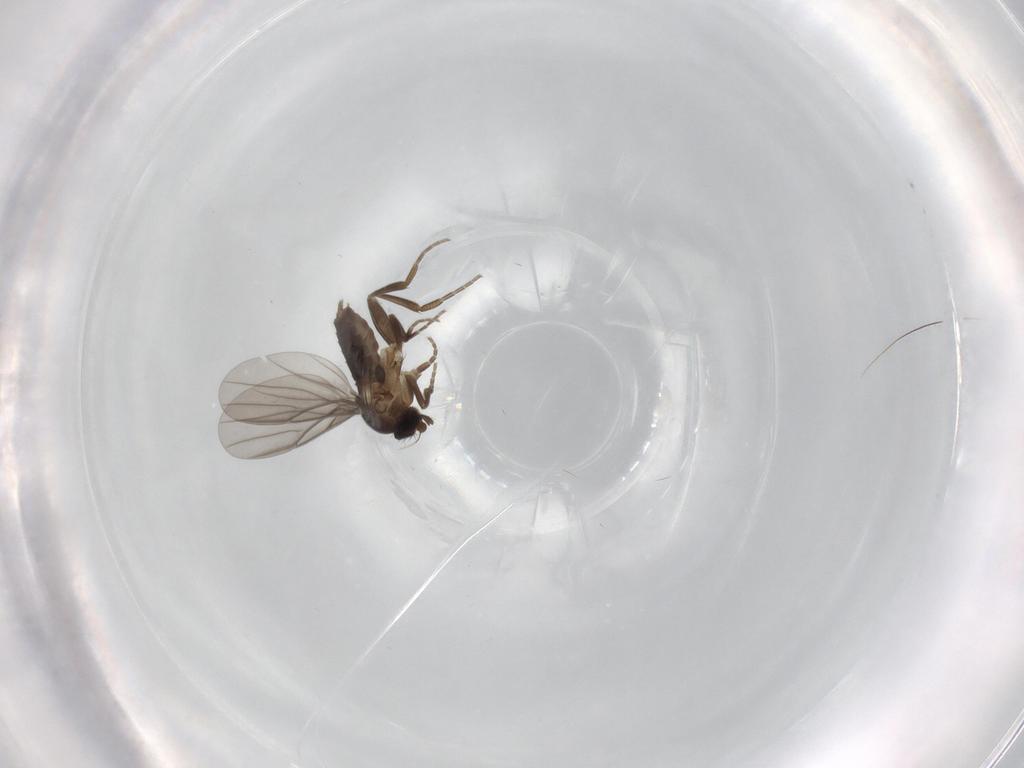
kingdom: Animalia
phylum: Arthropoda
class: Insecta
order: Diptera
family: Phoridae
